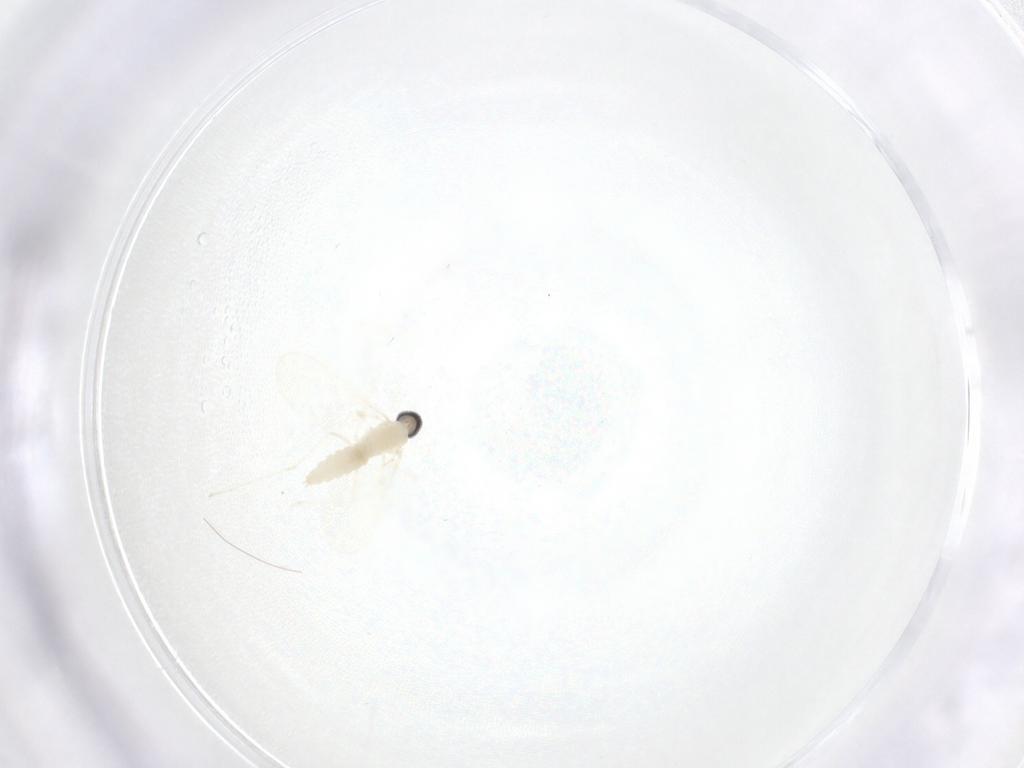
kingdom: Animalia
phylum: Arthropoda
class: Insecta
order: Diptera
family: Cecidomyiidae
